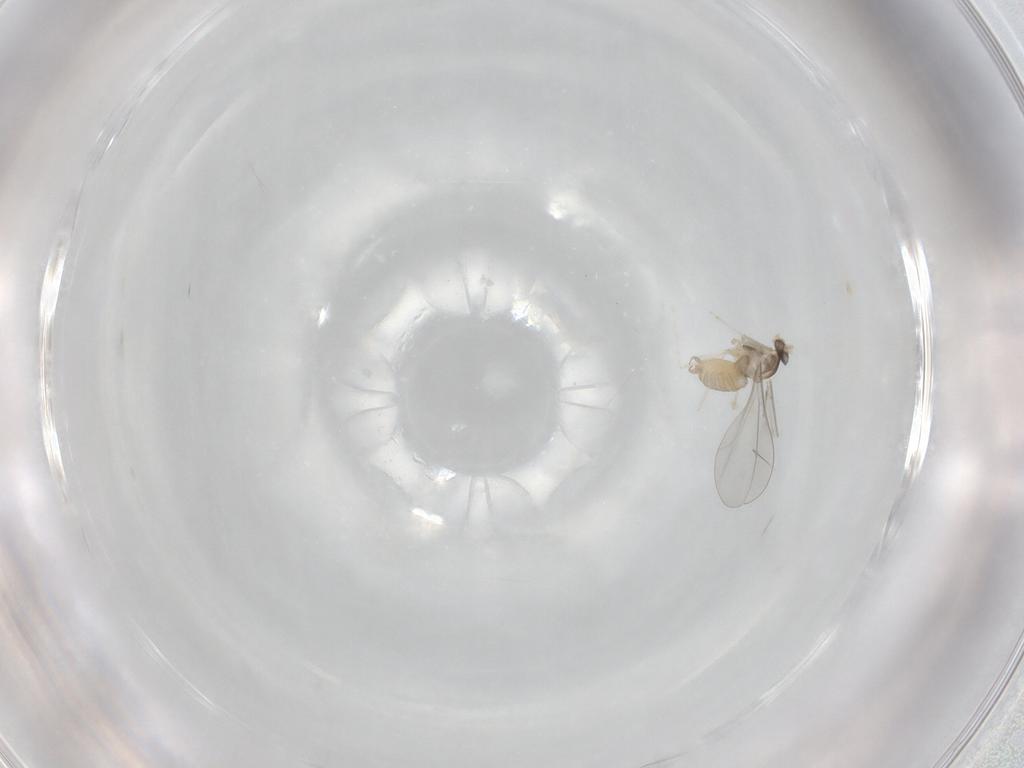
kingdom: Animalia
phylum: Arthropoda
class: Insecta
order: Diptera
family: Cecidomyiidae
